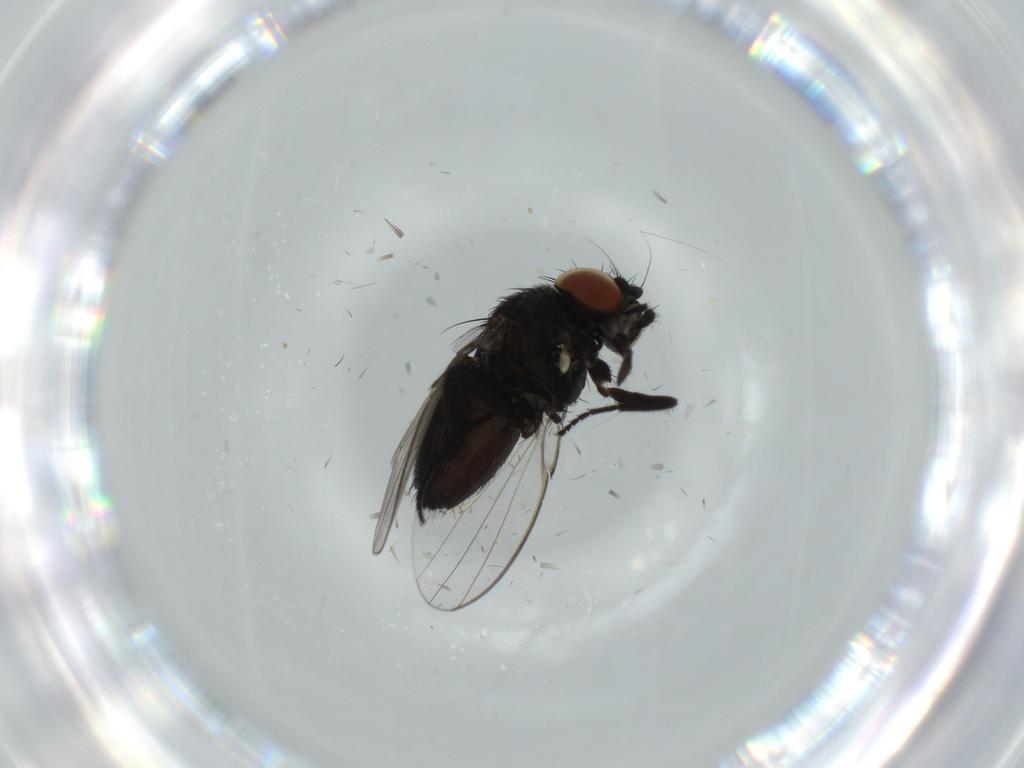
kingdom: Animalia
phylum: Arthropoda
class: Insecta
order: Diptera
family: Milichiidae
